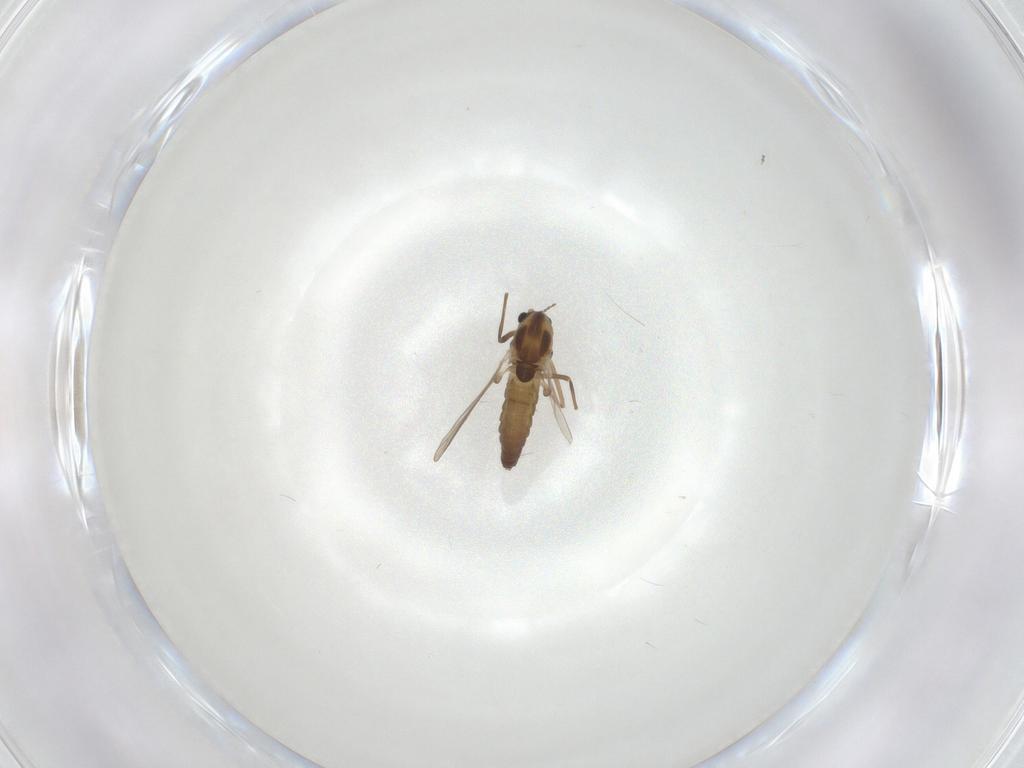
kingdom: Animalia
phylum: Arthropoda
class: Insecta
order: Diptera
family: Chironomidae
